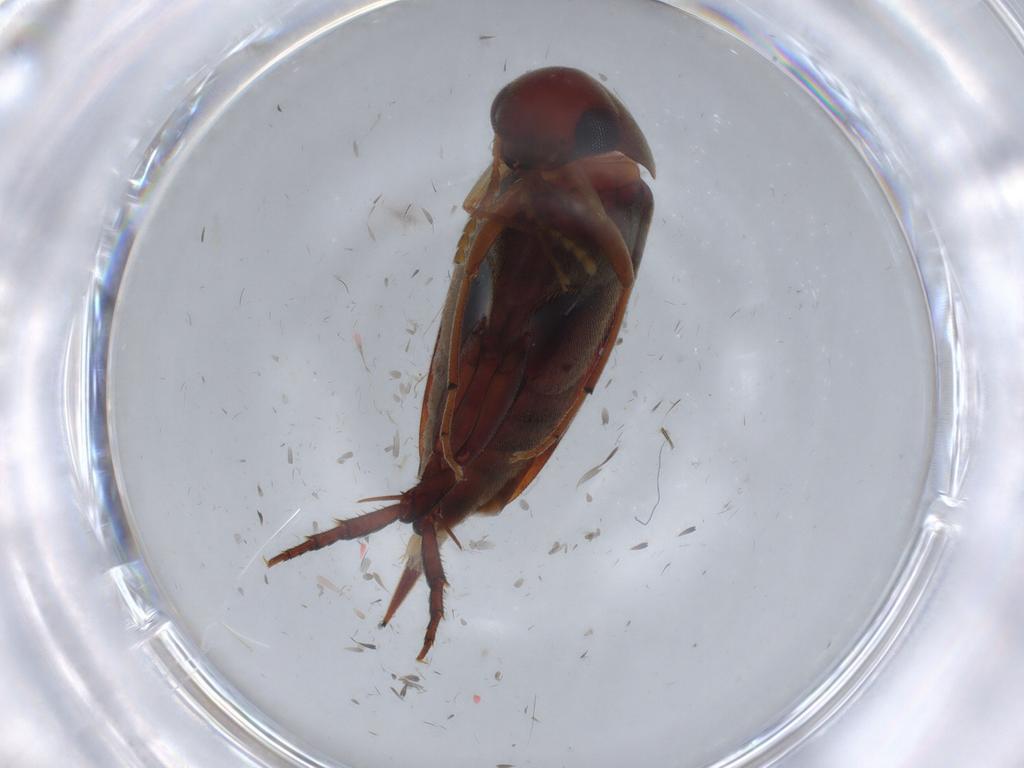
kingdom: Animalia
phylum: Arthropoda
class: Insecta
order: Coleoptera
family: Mordellidae
